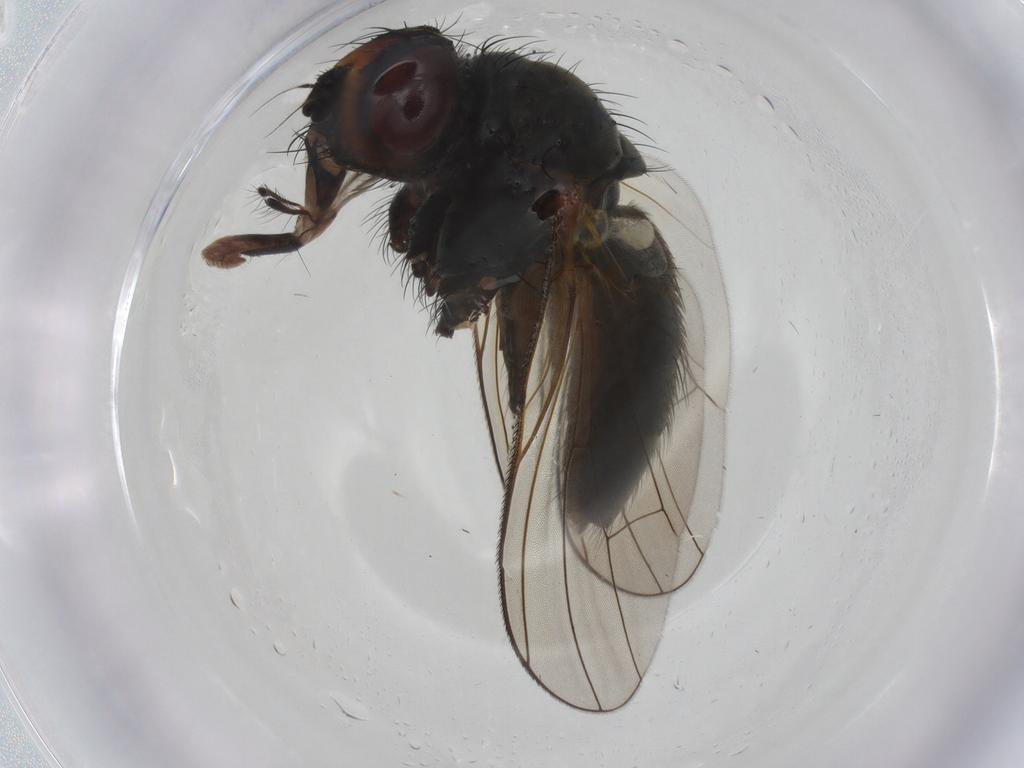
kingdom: Animalia
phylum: Arthropoda
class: Insecta
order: Diptera
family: Anthomyiidae
